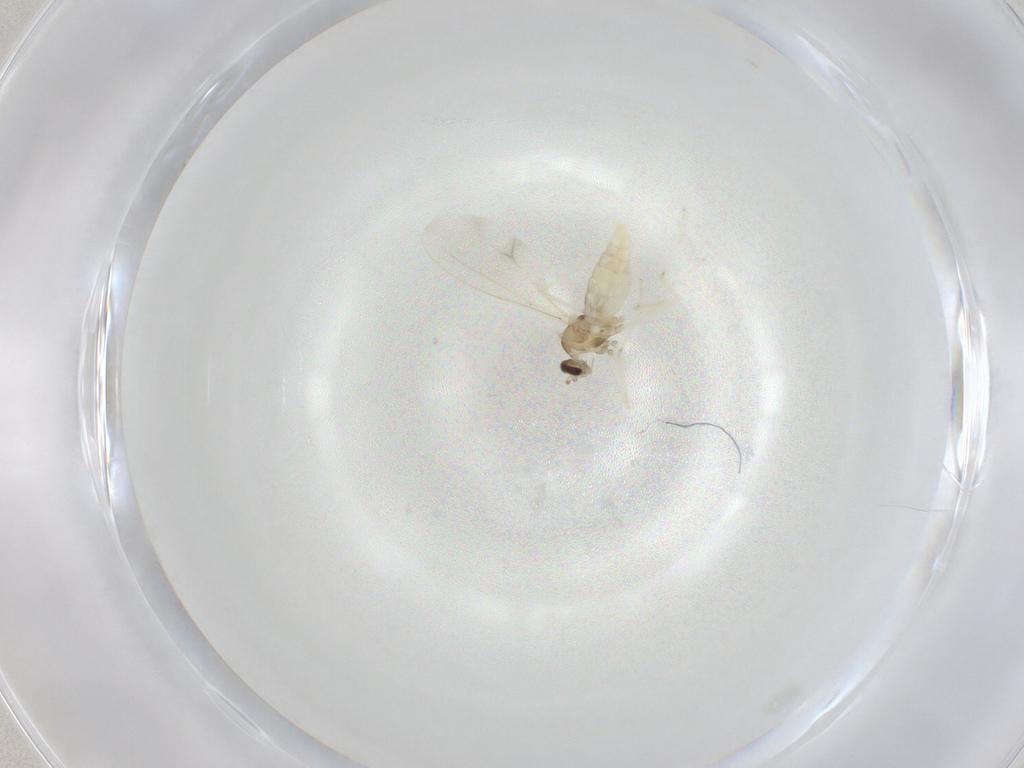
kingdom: Animalia
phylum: Arthropoda
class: Insecta
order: Diptera
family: Cecidomyiidae
